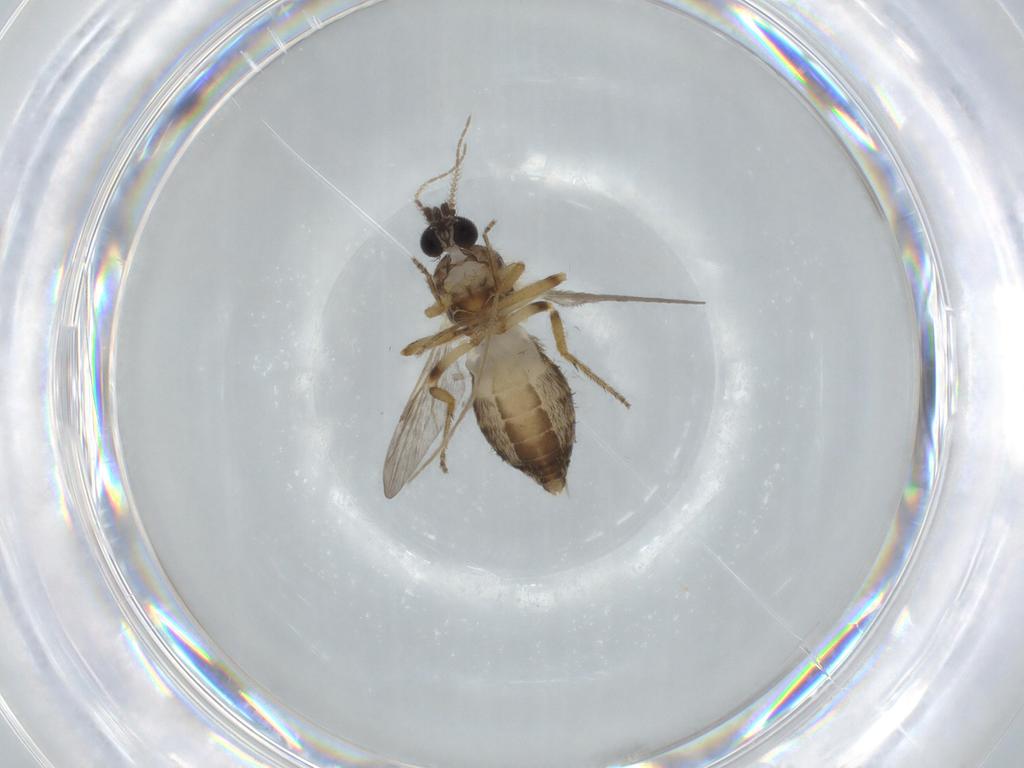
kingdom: Animalia
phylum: Arthropoda
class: Insecta
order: Diptera
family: Ceratopogonidae
